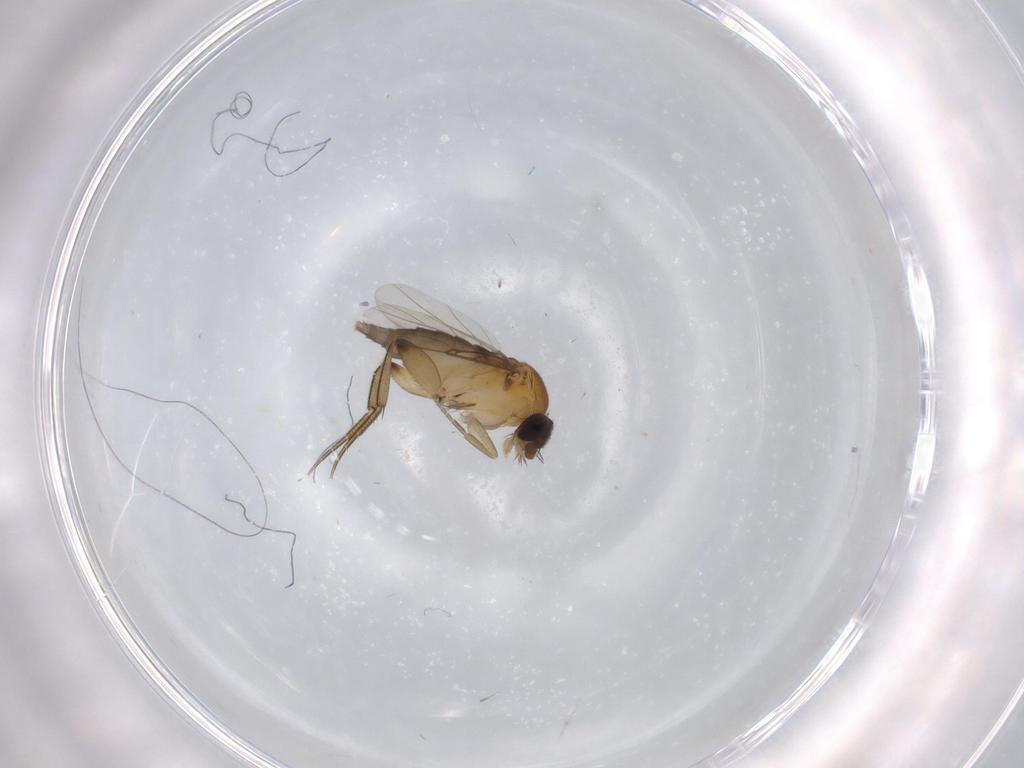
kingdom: Animalia
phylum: Arthropoda
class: Insecta
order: Diptera
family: Phoridae
